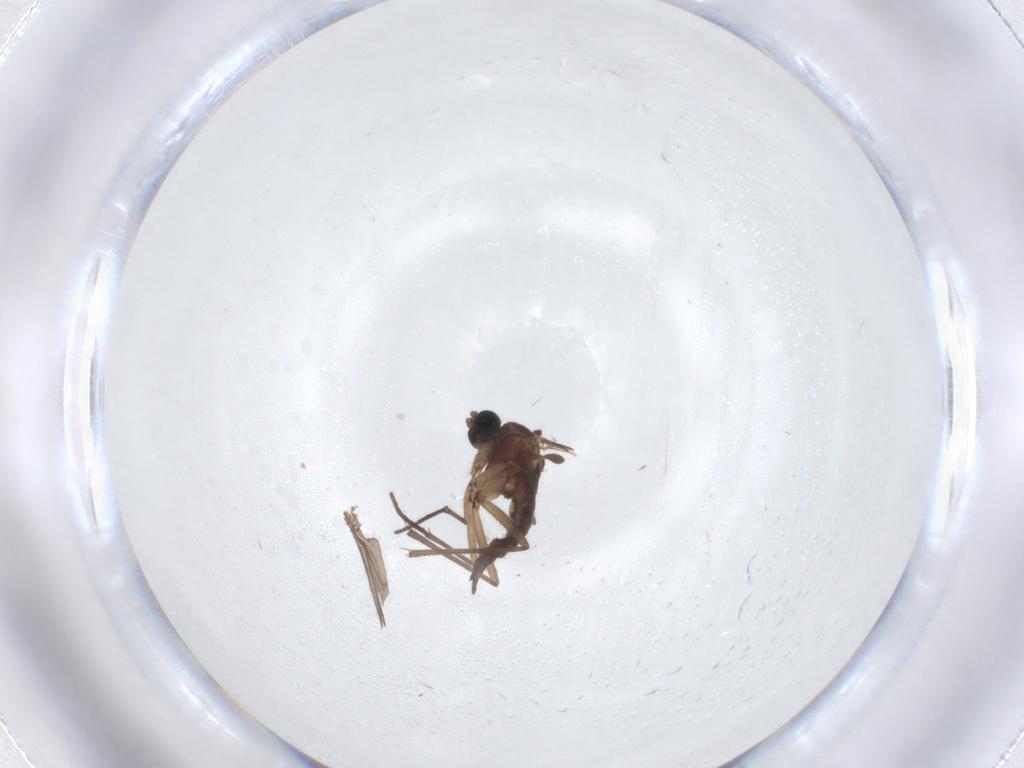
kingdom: Animalia
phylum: Arthropoda
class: Insecta
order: Diptera
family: Sciaridae
